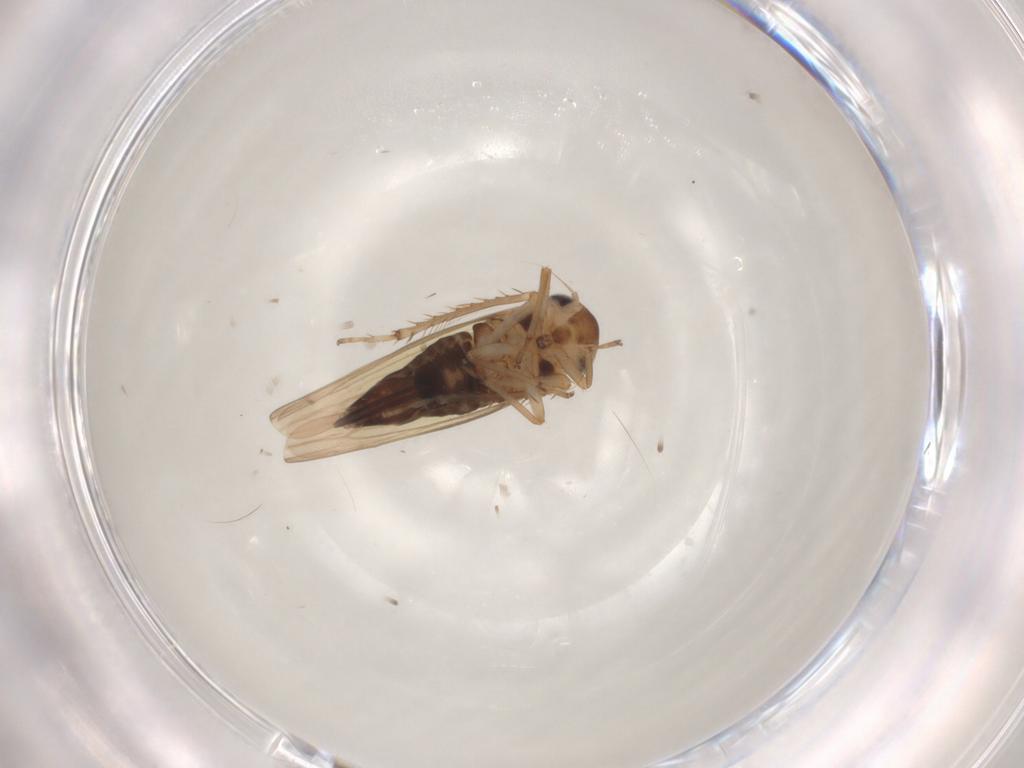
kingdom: Animalia
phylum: Arthropoda
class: Insecta
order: Hemiptera
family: Cicadellidae
